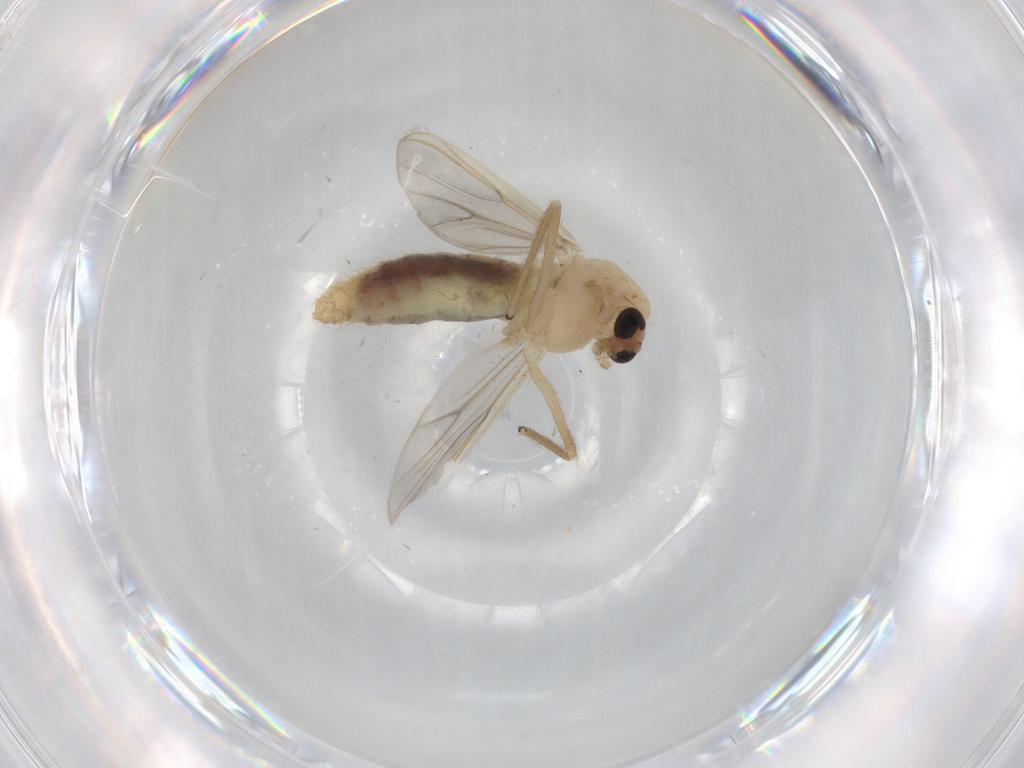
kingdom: Animalia
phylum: Arthropoda
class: Insecta
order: Diptera
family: Chironomidae
